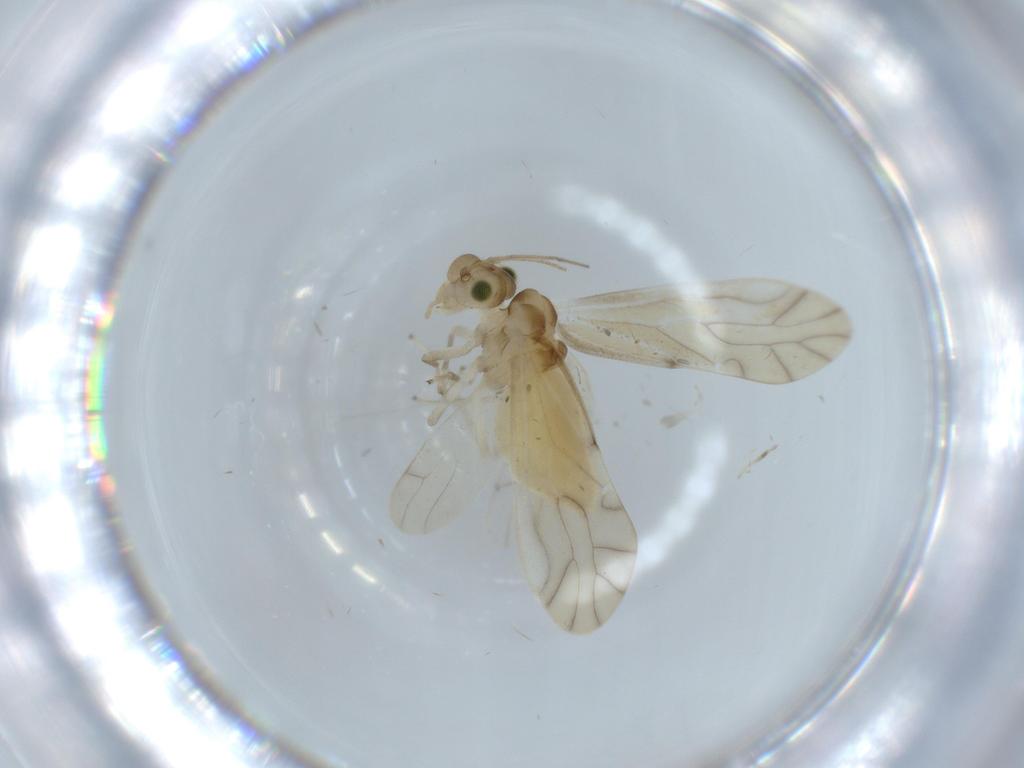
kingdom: Animalia
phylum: Arthropoda
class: Insecta
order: Psocodea
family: Caeciliusidae
